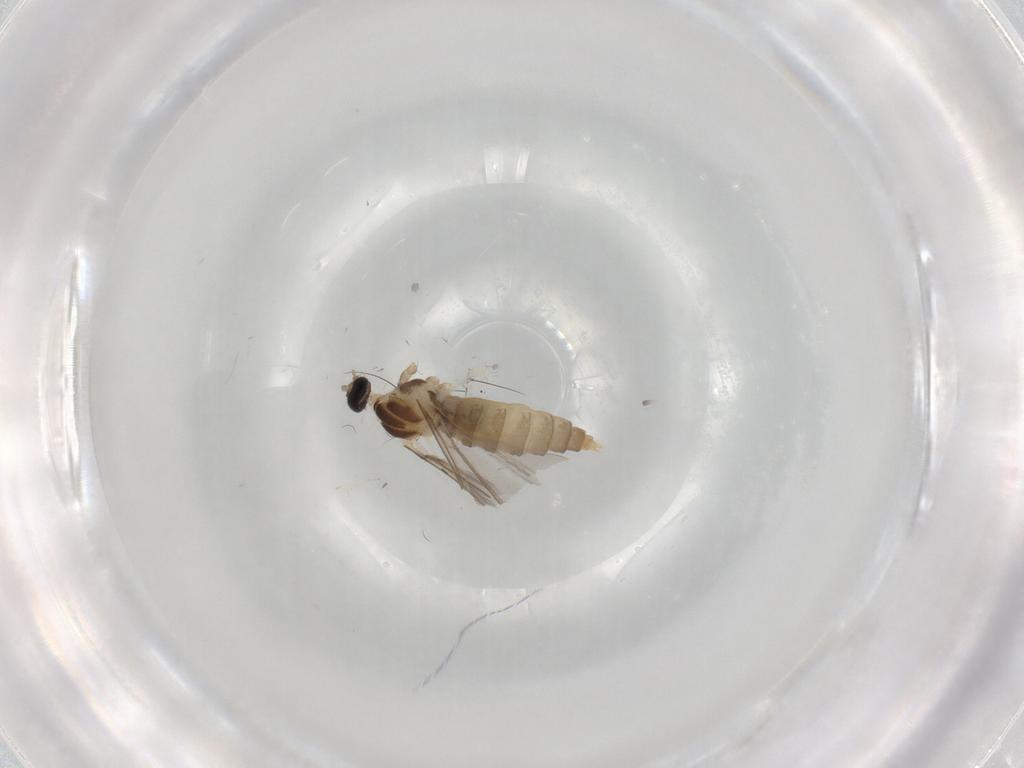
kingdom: Animalia
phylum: Arthropoda
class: Insecta
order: Diptera
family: Cecidomyiidae
